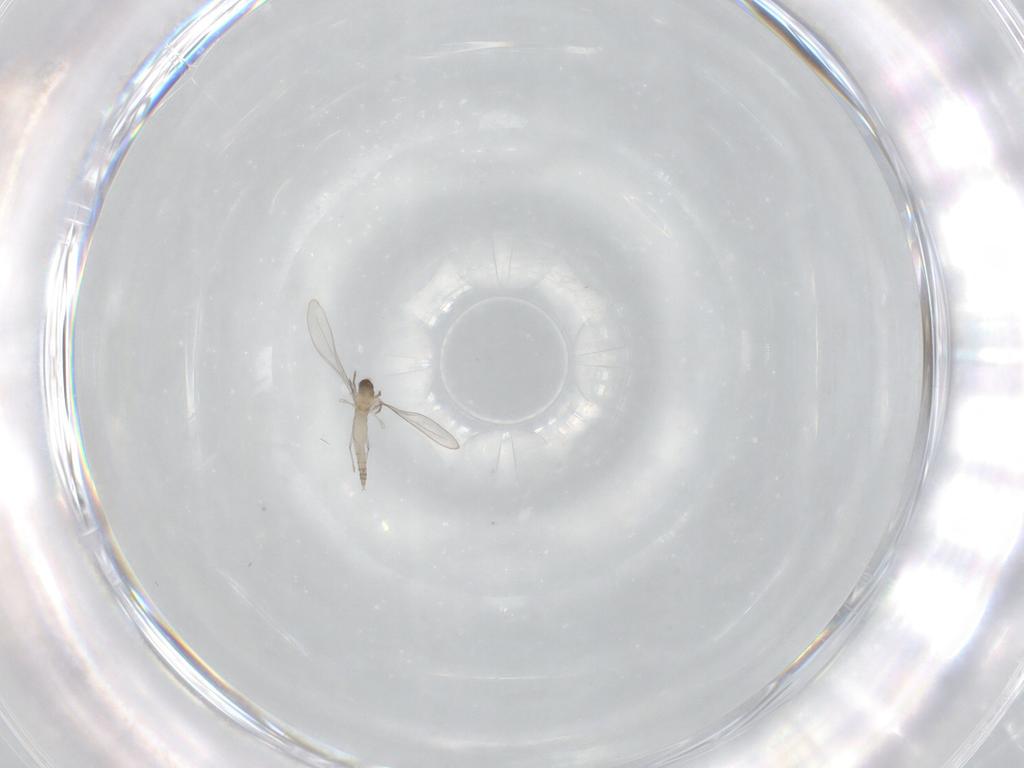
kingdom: Animalia
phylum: Arthropoda
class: Insecta
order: Diptera
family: Cecidomyiidae
